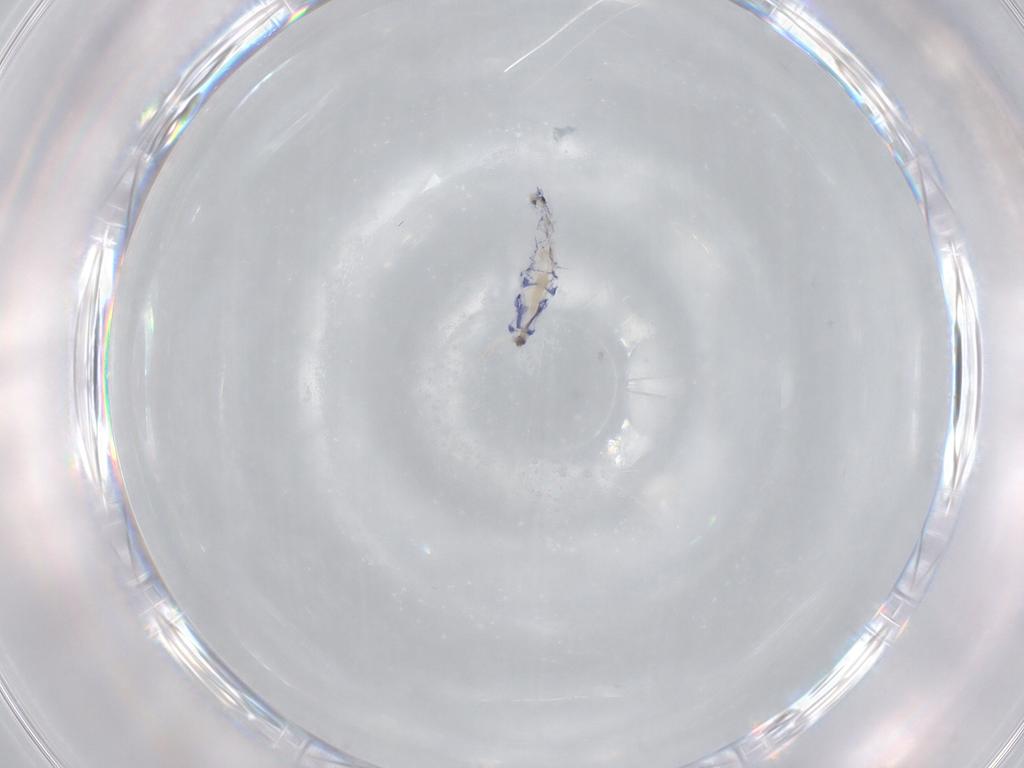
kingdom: Animalia
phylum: Arthropoda
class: Collembola
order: Entomobryomorpha
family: Entomobryidae
